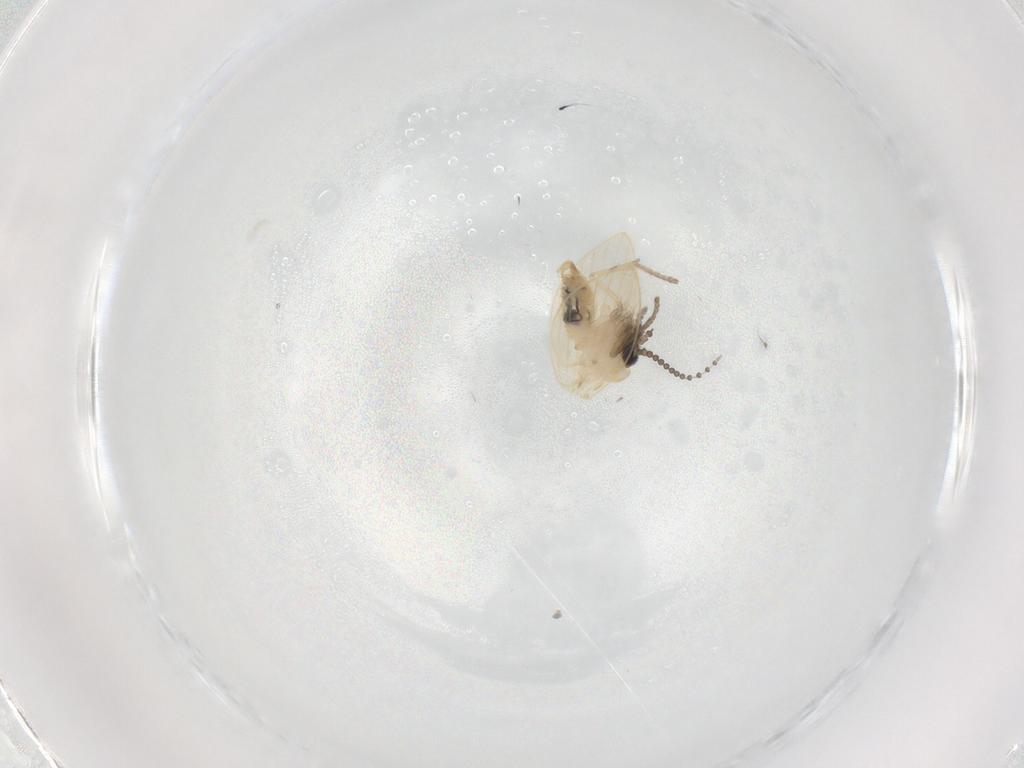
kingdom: Animalia
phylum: Arthropoda
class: Insecta
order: Diptera
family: Psychodidae
